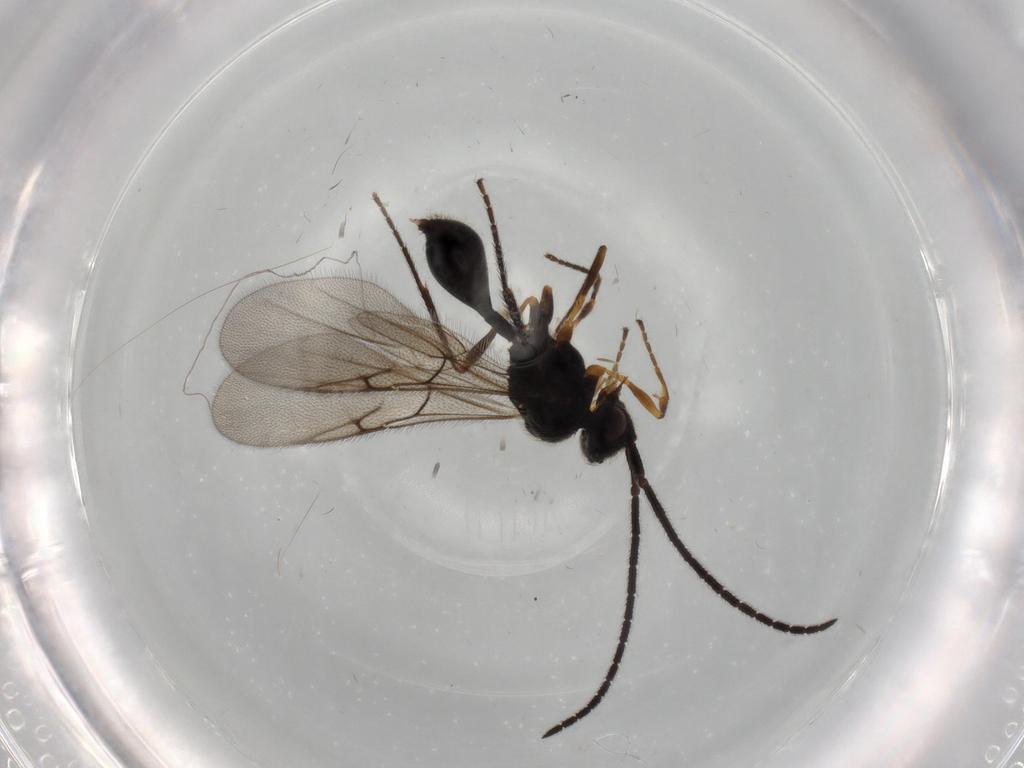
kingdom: Animalia
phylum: Arthropoda
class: Insecta
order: Hymenoptera
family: Diapriidae
